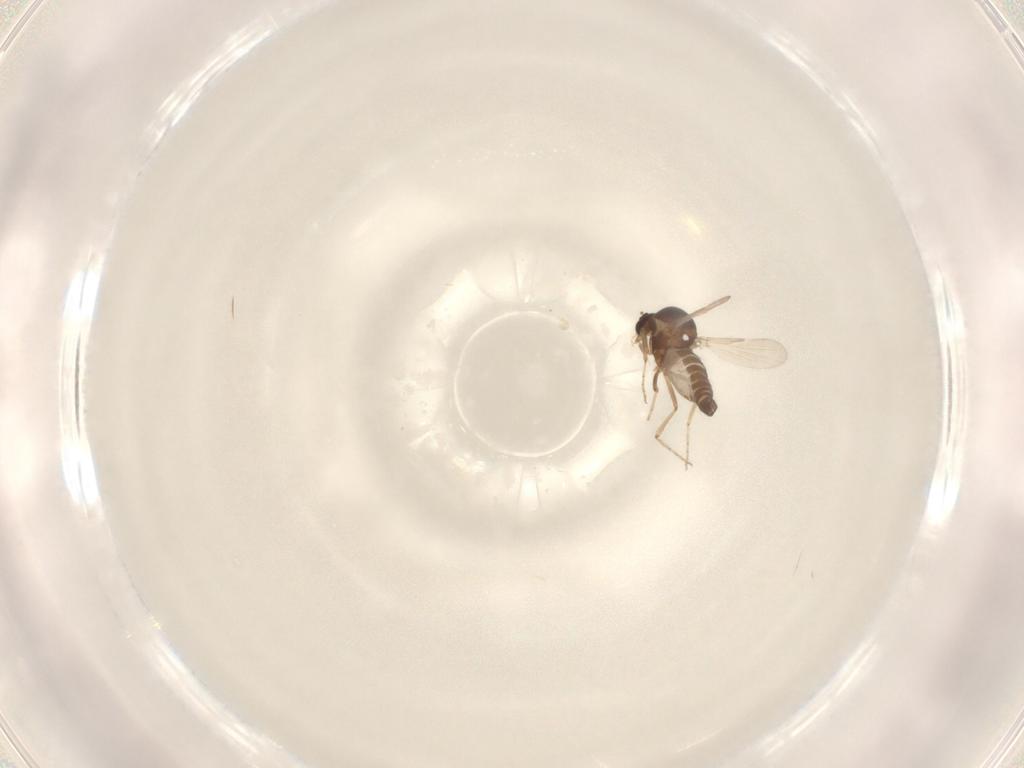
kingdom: Animalia
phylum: Arthropoda
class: Insecta
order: Diptera
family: Ceratopogonidae
